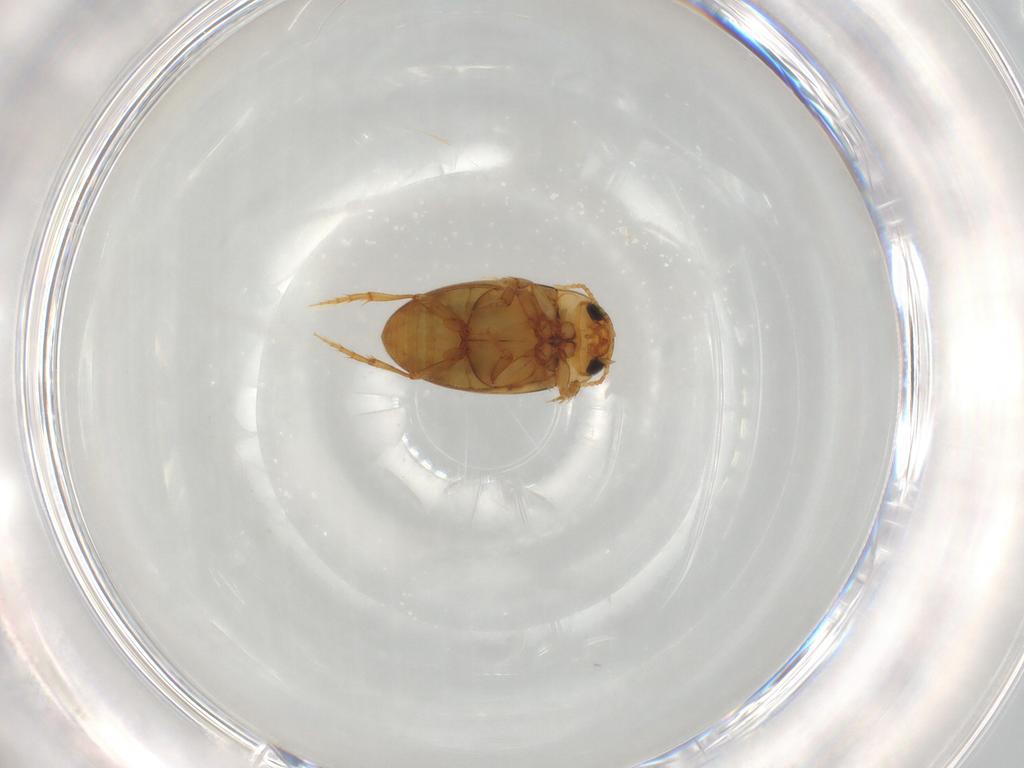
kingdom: Animalia
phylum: Arthropoda
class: Insecta
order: Coleoptera
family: Dytiscidae
